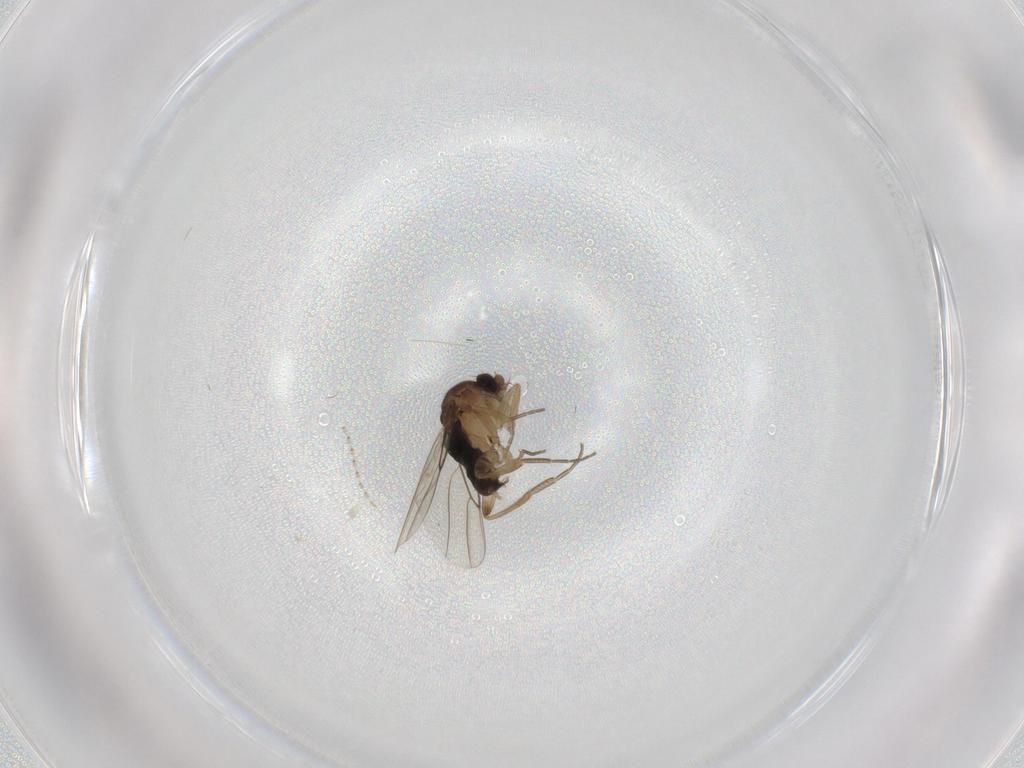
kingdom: Animalia
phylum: Arthropoda
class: Insecta
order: Diptera
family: Phoridae
